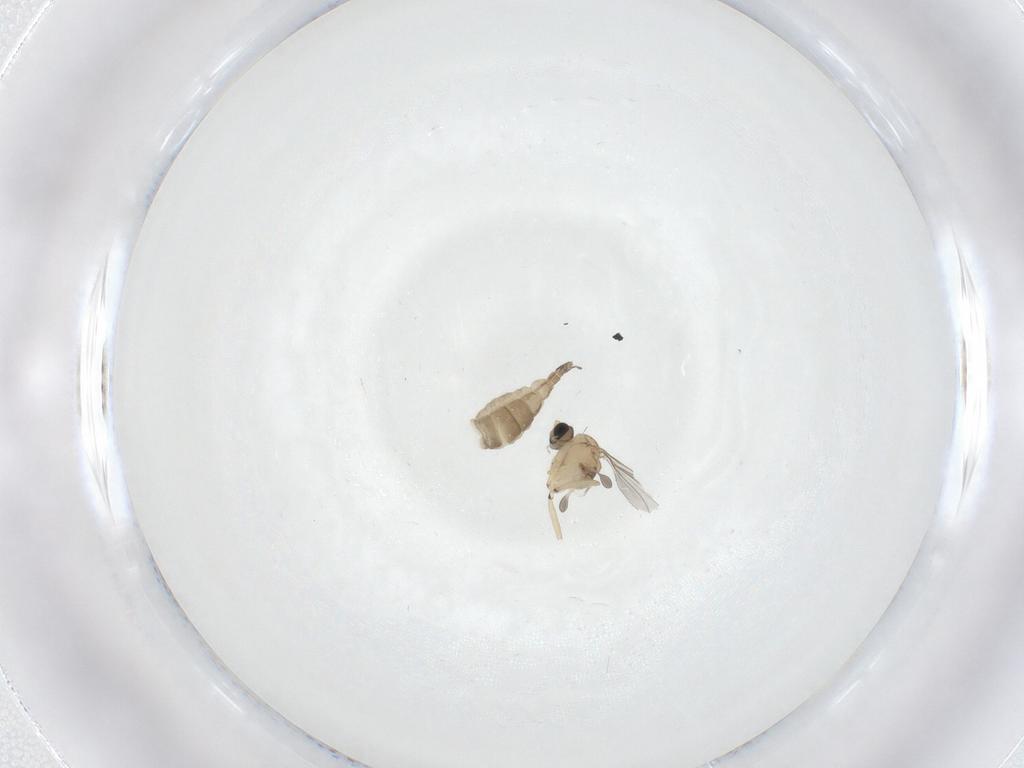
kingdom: Animalia
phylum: Arthropoda
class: Insecta
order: Diptera
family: Sciaridae
